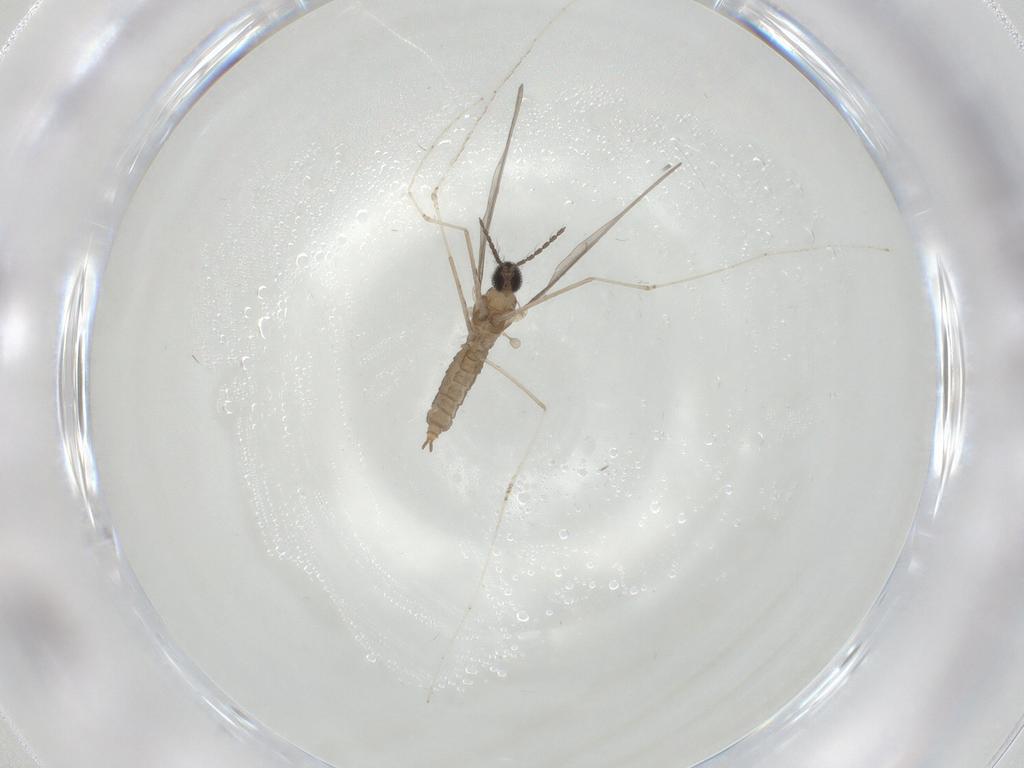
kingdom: Animalia
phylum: Arthropoda
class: Insecta
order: Diptera
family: Cecidomyiidae
